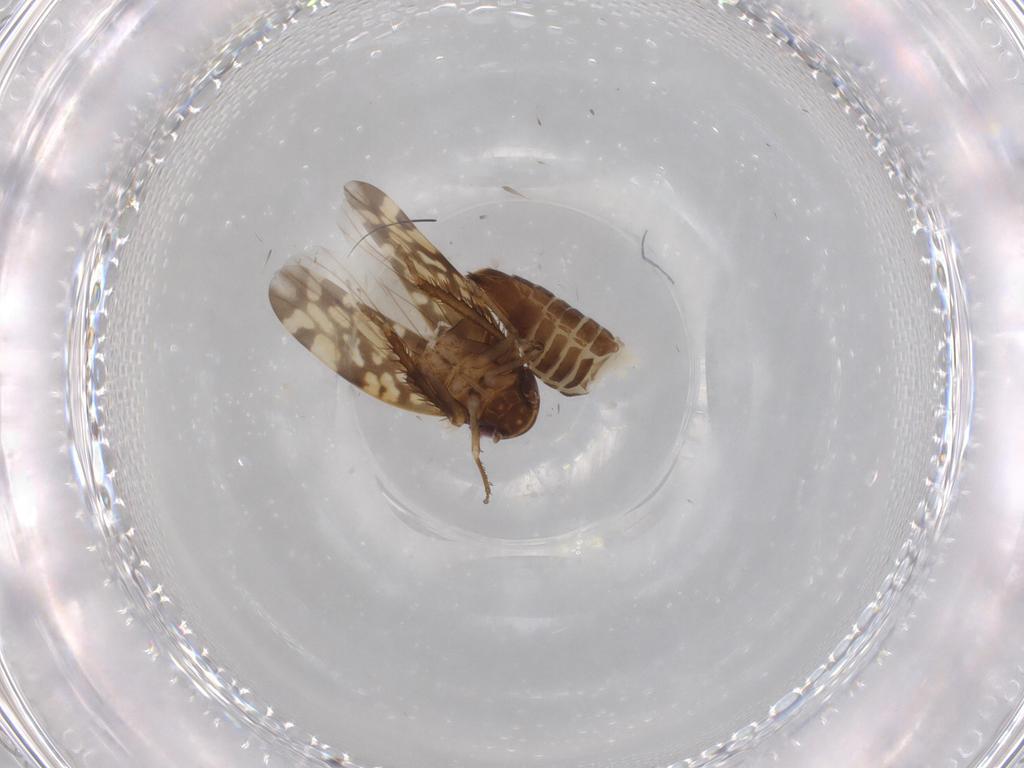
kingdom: Animalia
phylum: Arthropoda
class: Insecta
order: Hemiptera
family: Cicadellidae
